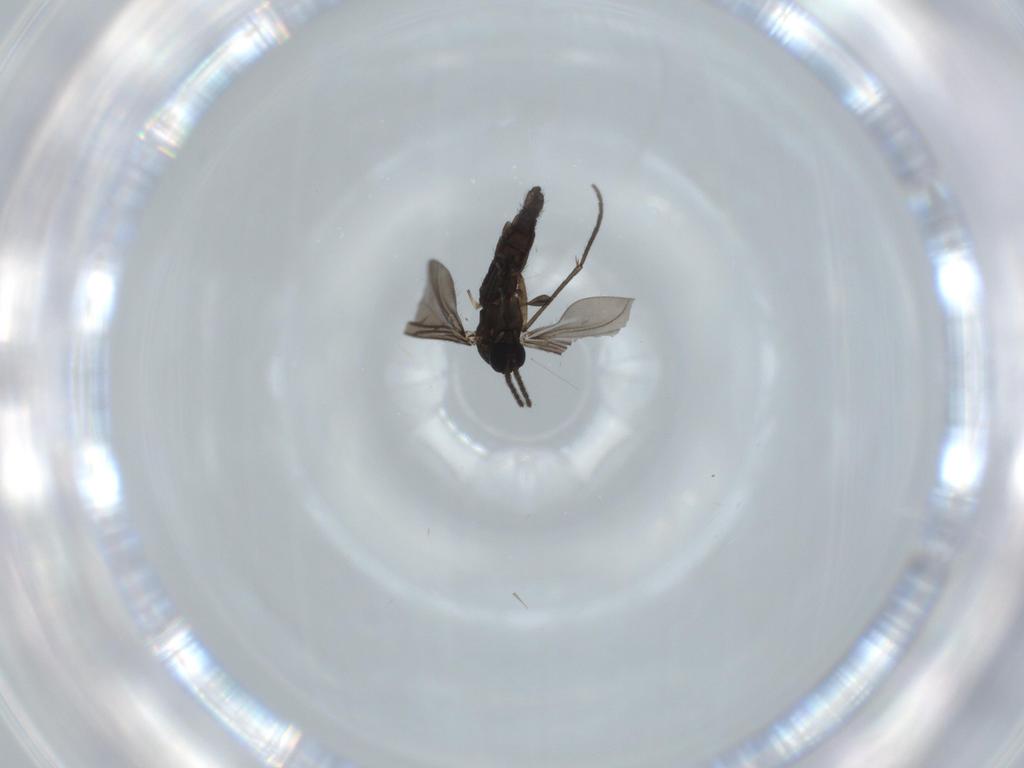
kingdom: Animalia
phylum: Arthropoda
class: Insecta
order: Diptera
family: Sciaridae
